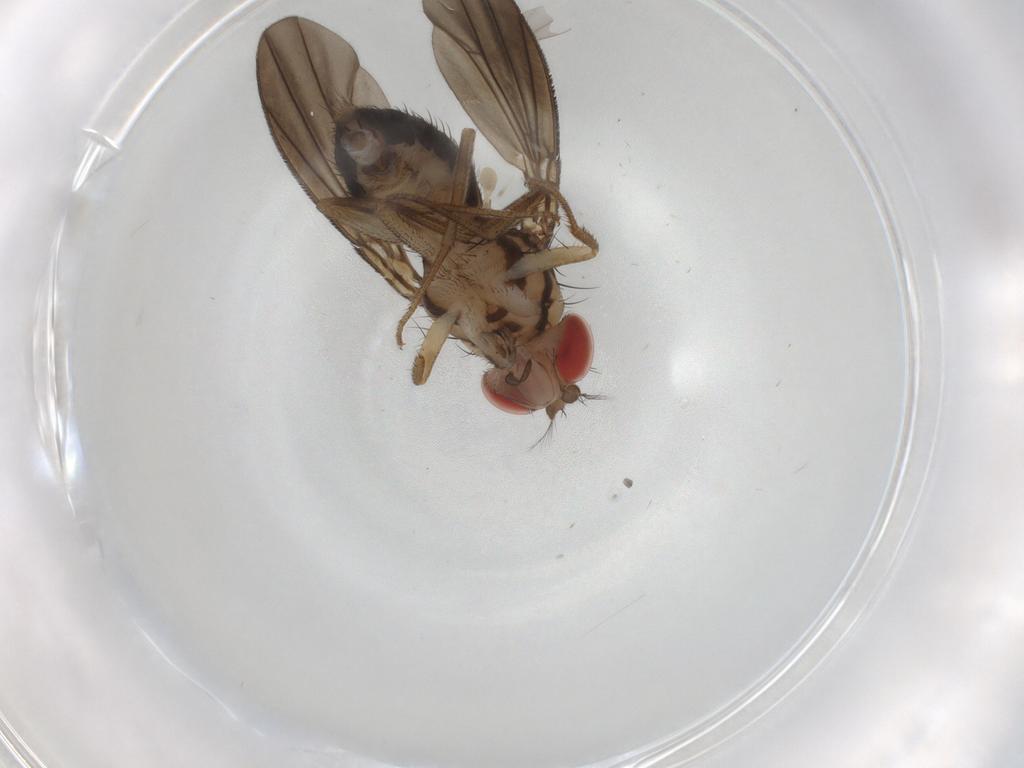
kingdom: Animalia
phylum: Arthropoda
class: Insecta
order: Diptera
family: Drosophilidae
